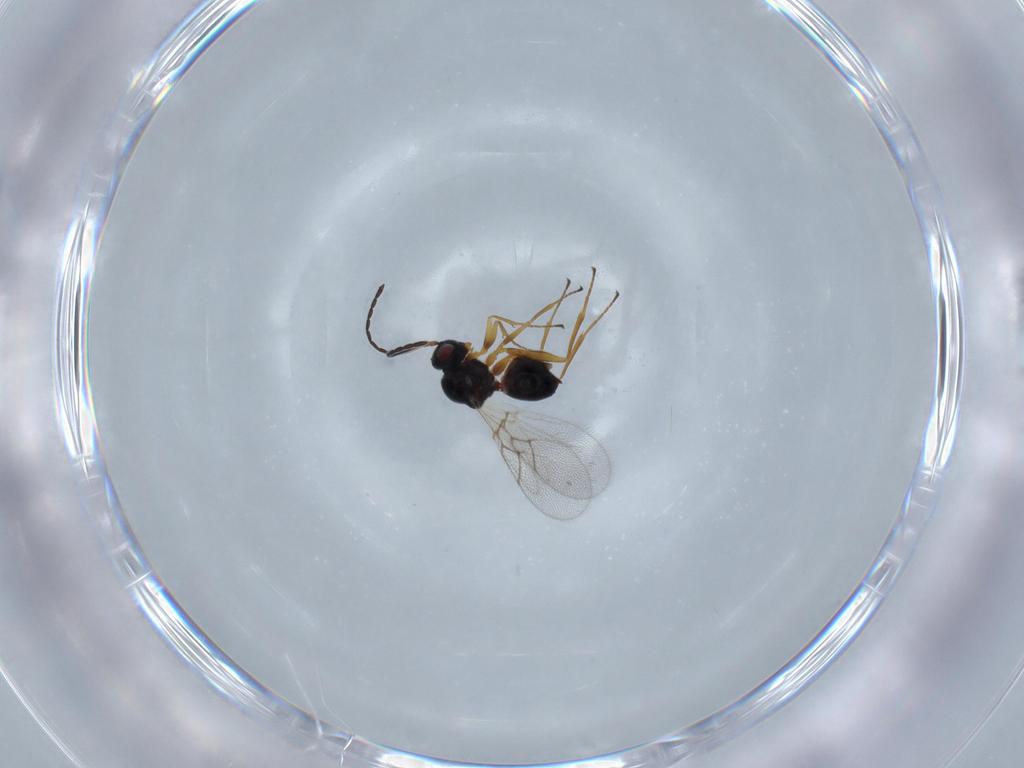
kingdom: Animalia
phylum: Arthropoda
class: Insecta
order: Hymenoptera
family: Figitidae
